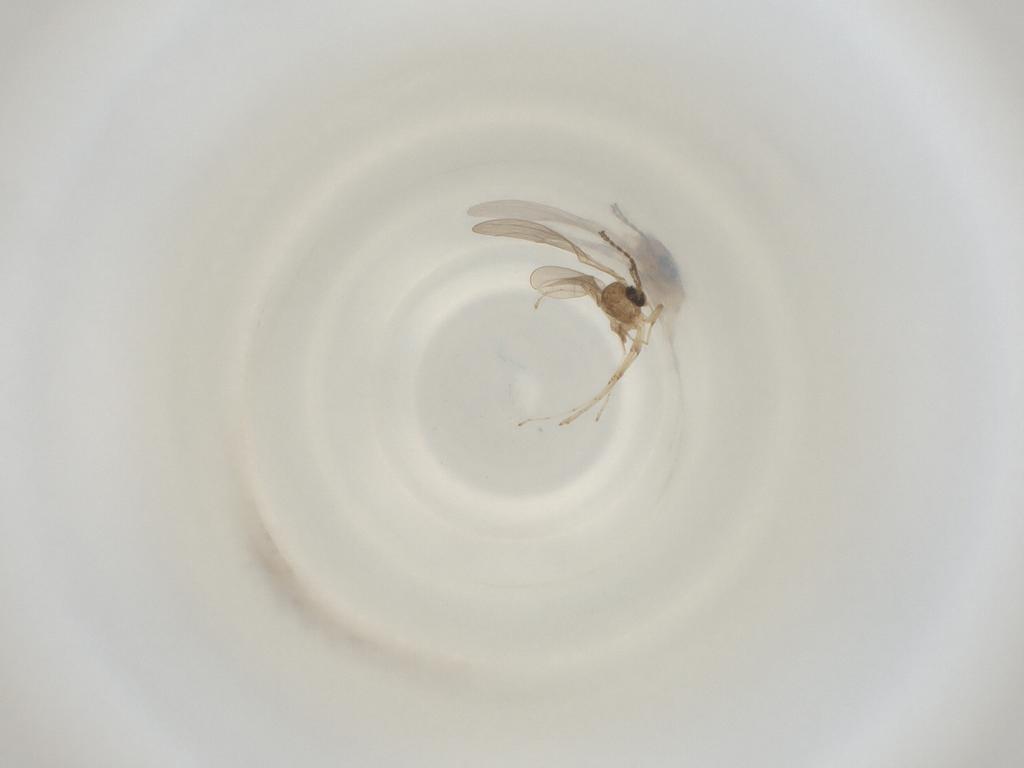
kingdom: Animalia
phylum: Arthropoda
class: Insecta
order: Diptera
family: Cecidomyiidae
